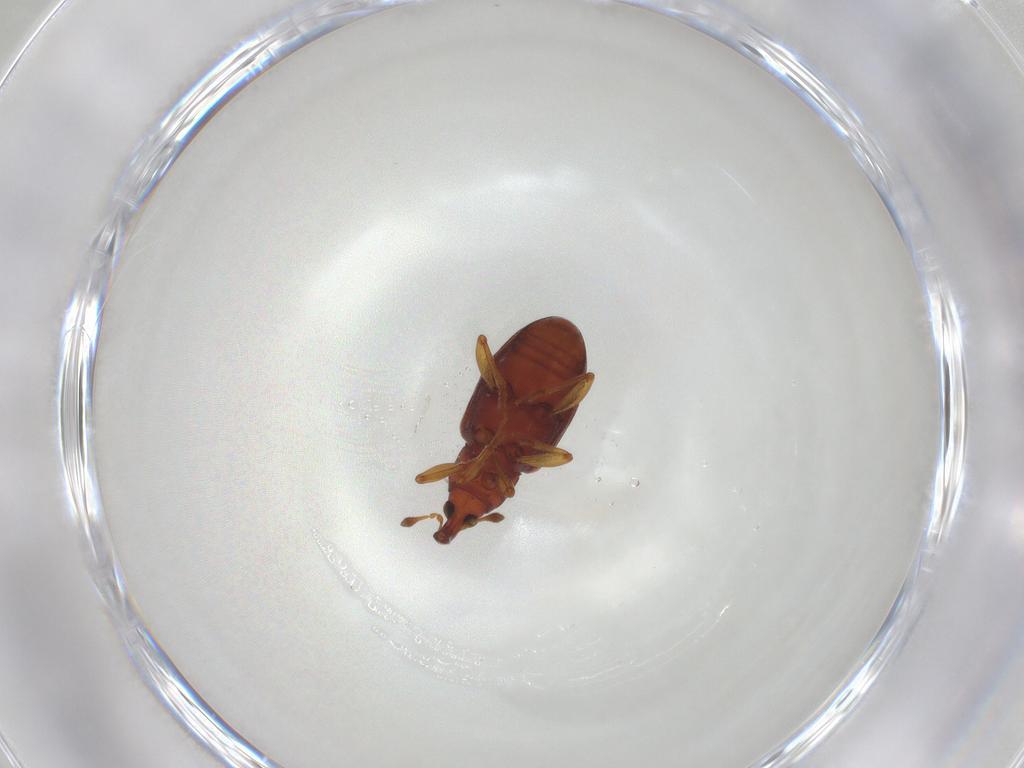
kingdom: Animalia
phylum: Arthropoda
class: Insecta
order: Coleoptera
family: Curculionidae
